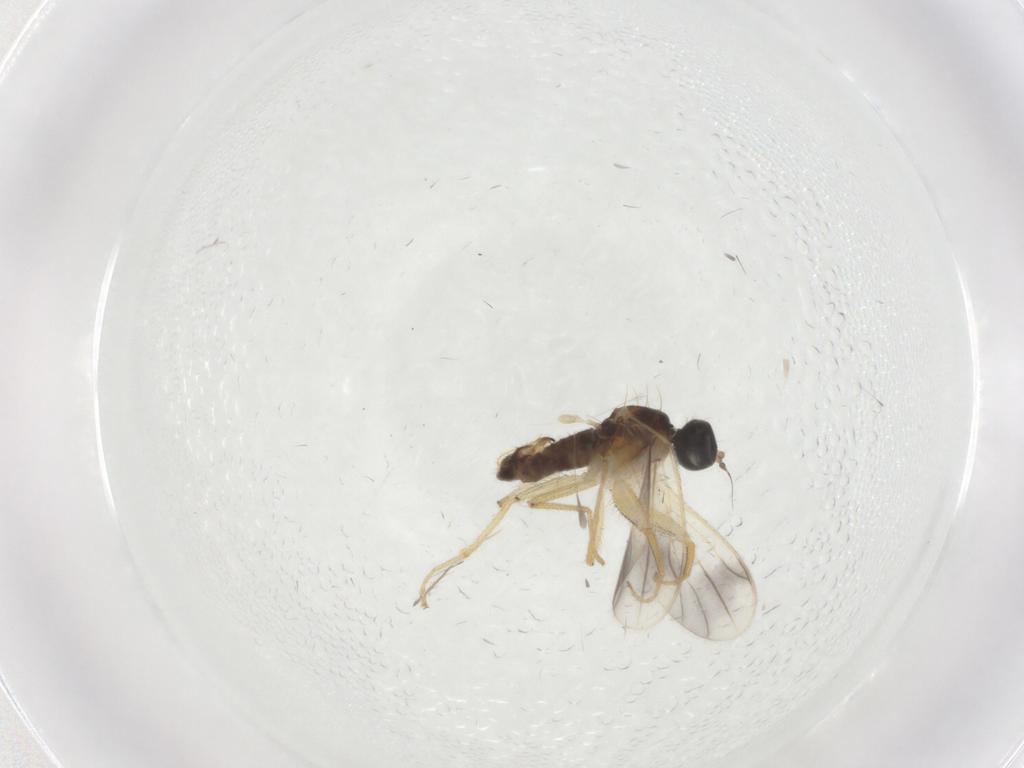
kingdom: Animalia
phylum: Arthropoda
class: Insecta
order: Diptera
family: Cecidomyiidae
